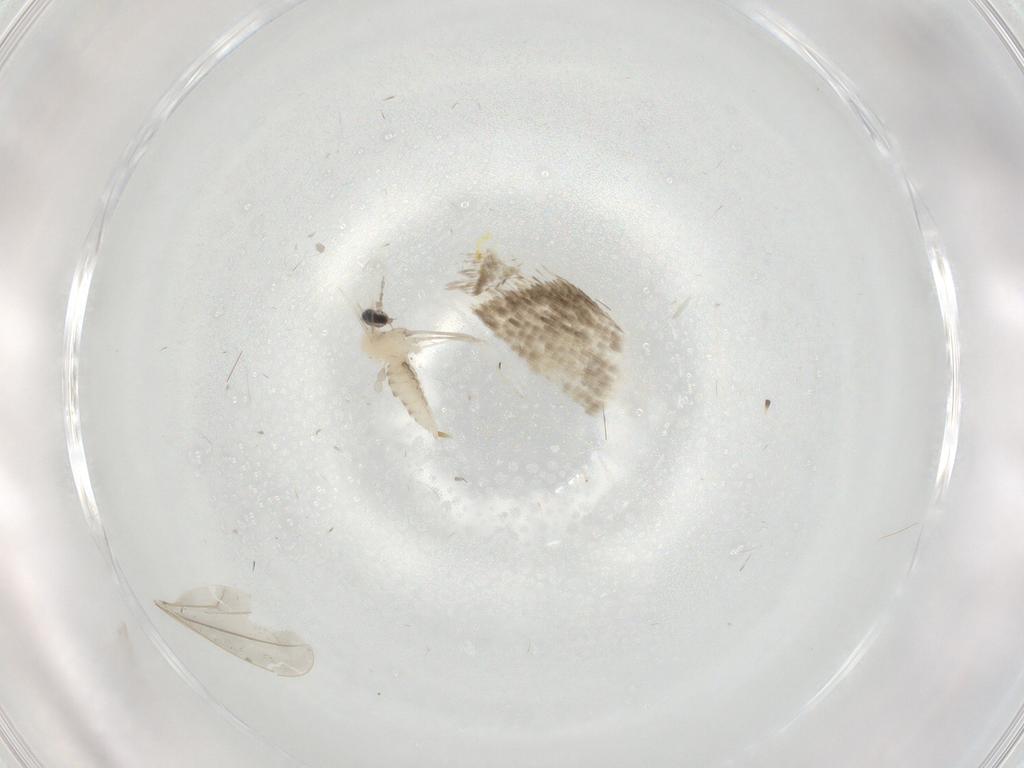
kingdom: Animalia
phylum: Arthropoda
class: Insecta
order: Diptera
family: Cecidomyiidae
